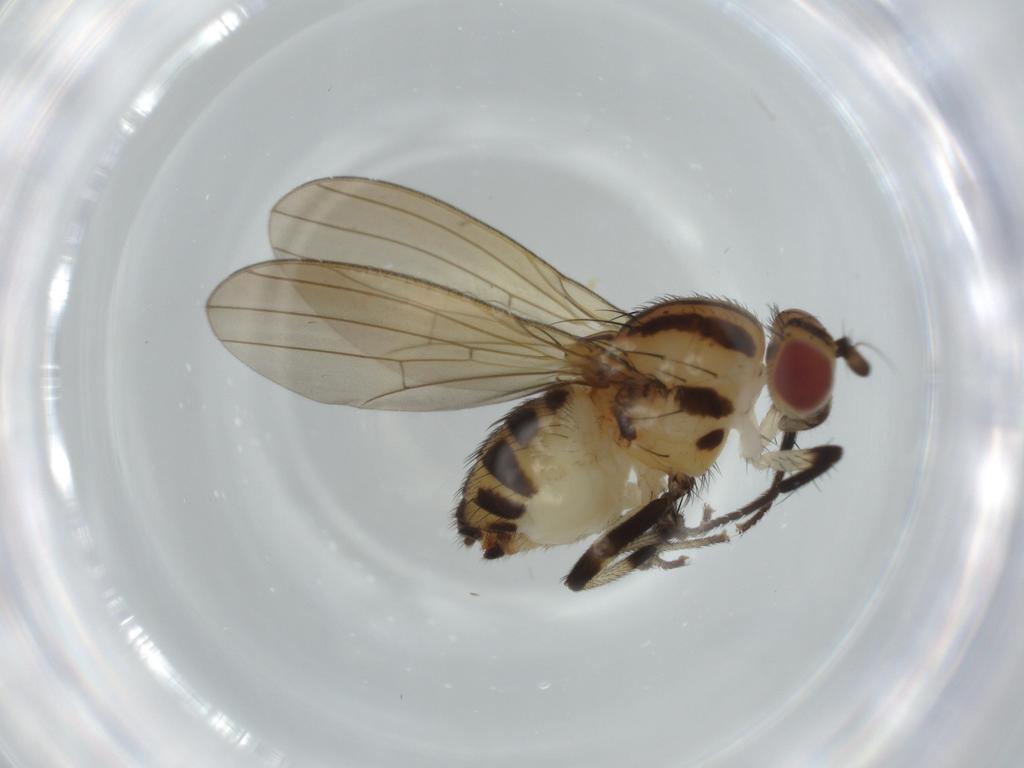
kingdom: Animalia
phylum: Arthropoda
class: Insecta
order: Diptera
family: Lauxaniidae
